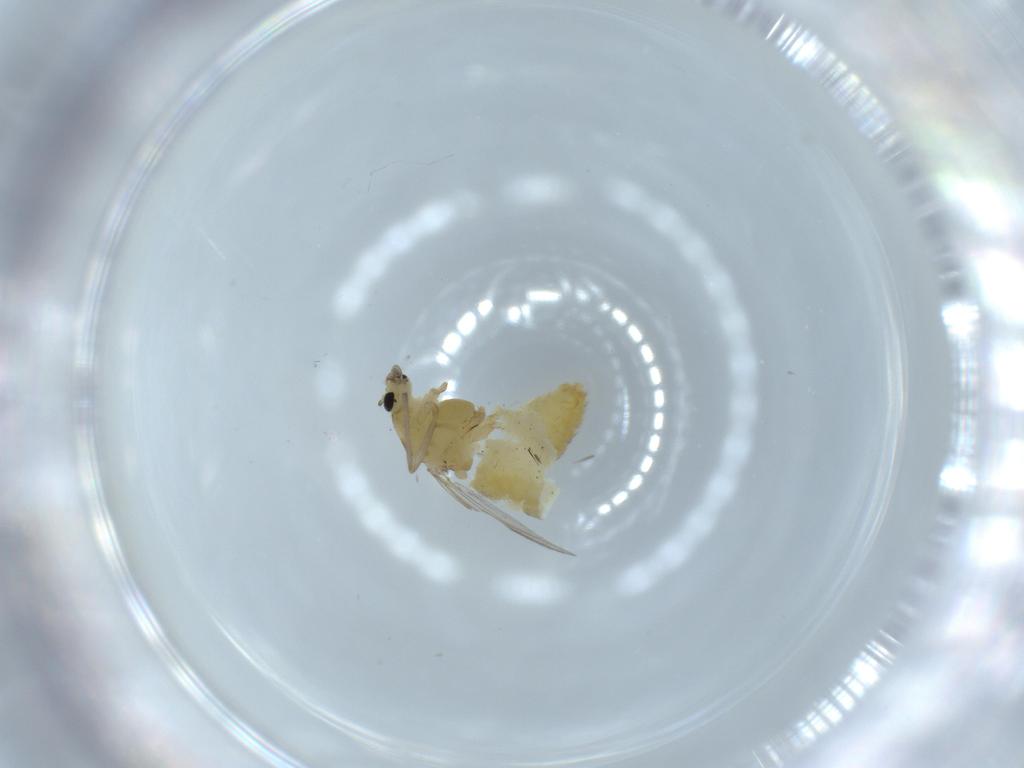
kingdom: Animalia
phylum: Arthropoda
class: Insecta
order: Diptera
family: Chironomidae
